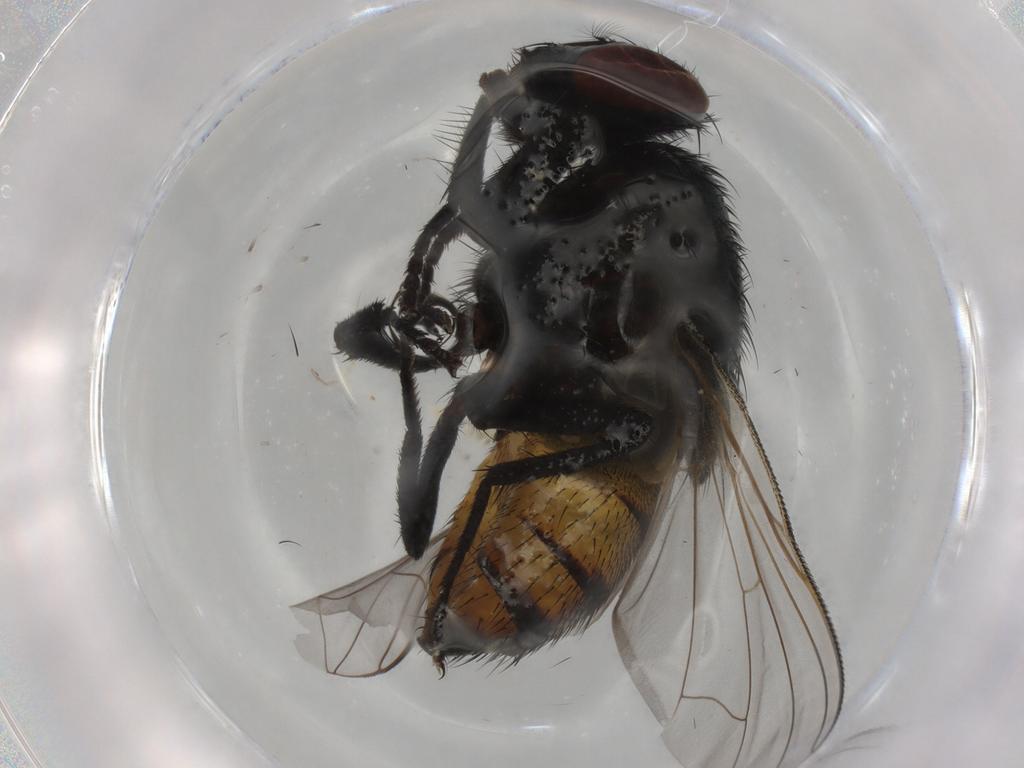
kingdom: Animalia
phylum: Arthropoda
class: Insecta
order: Diptera
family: Muscidae
